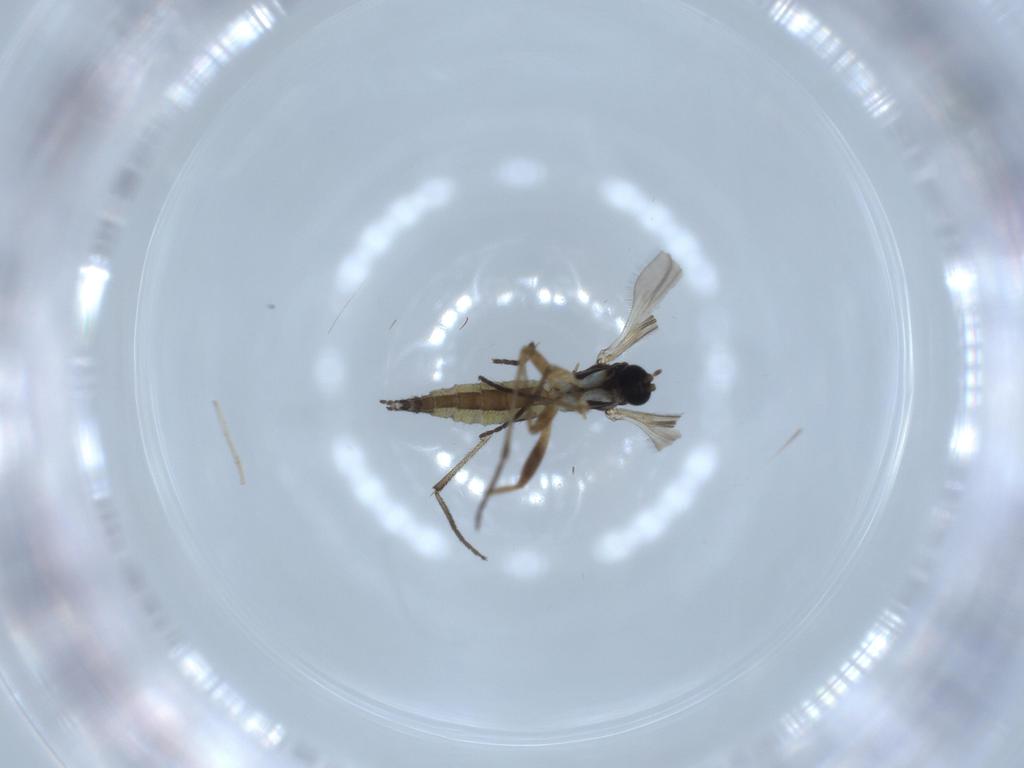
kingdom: Animalia
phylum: Arthropoda
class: Insecta
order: Diptera
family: Sciaridae
